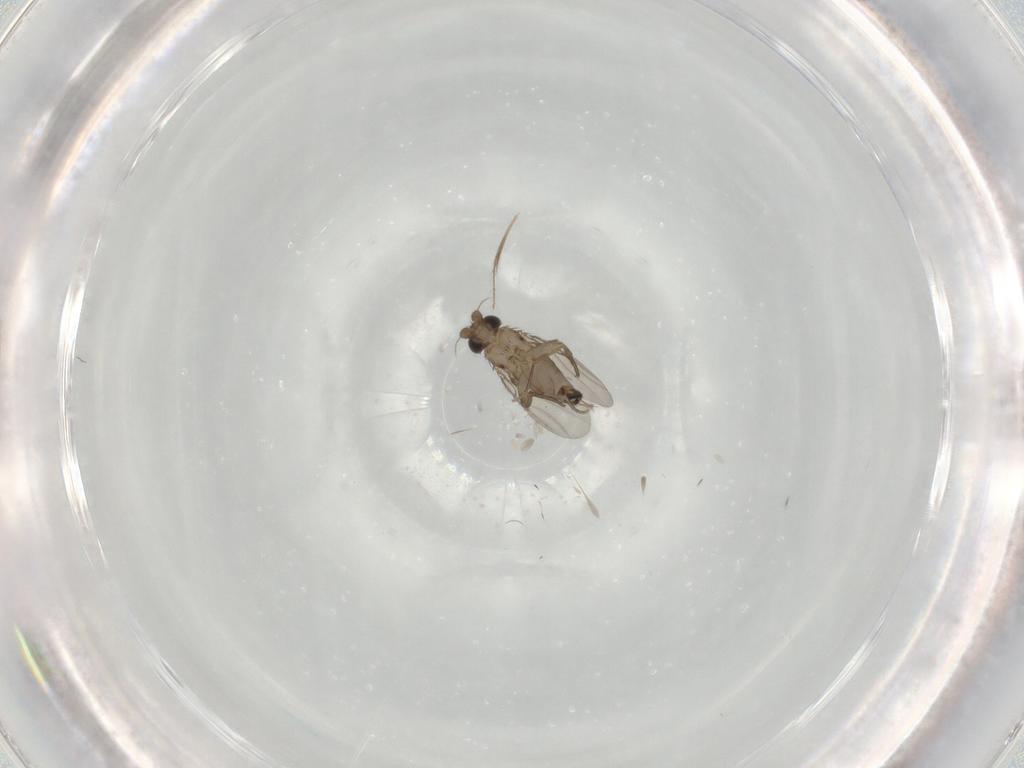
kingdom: Animalia
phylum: Arthropoda
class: Insecta
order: Diptera
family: Phoridae
